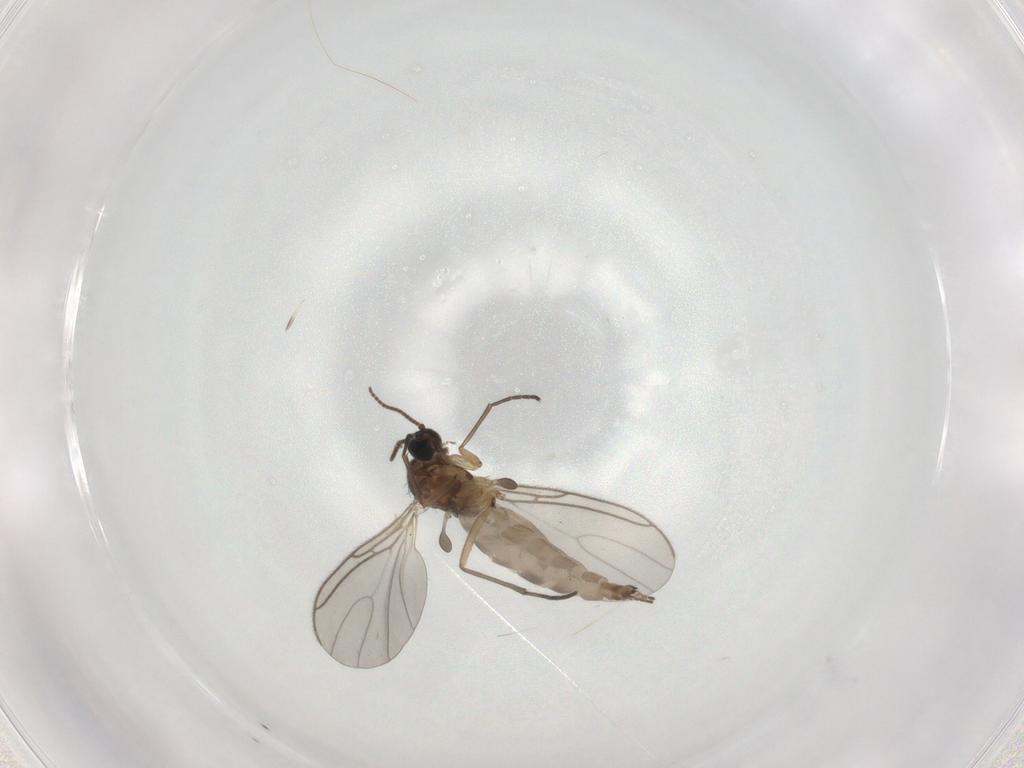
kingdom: Animalia
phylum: Arthropoda
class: Insecta
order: Diptera
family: Sciaridae
